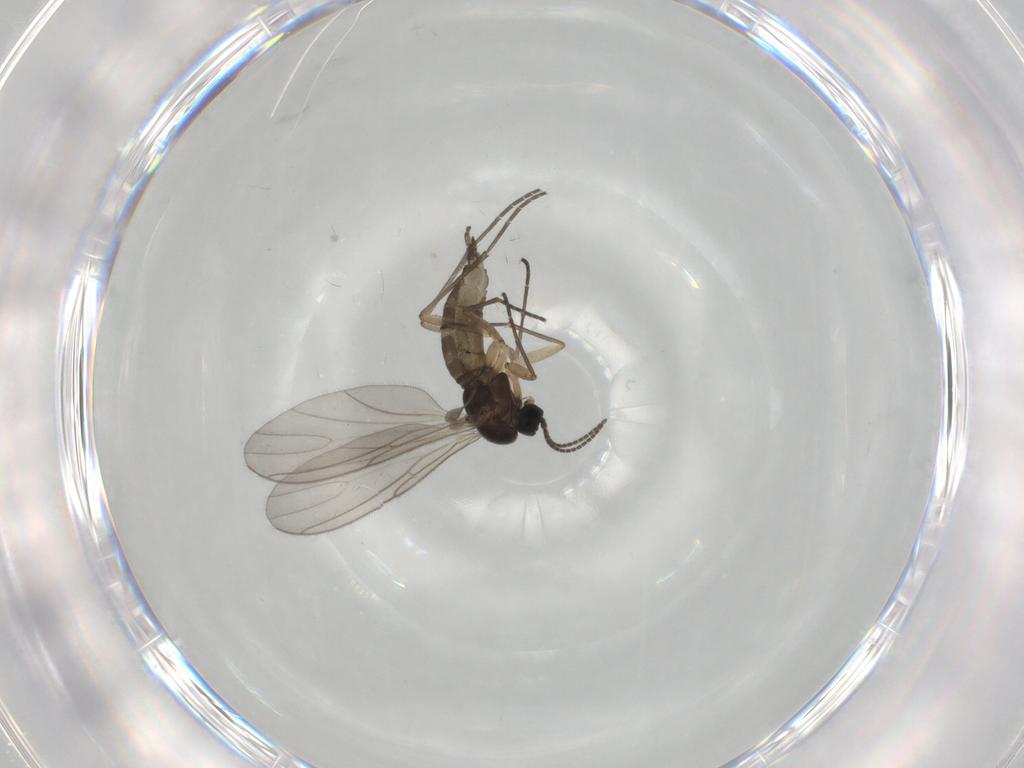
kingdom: Animalia
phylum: Arthropoda
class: Insecta
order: Diptera
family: Sciaridae
